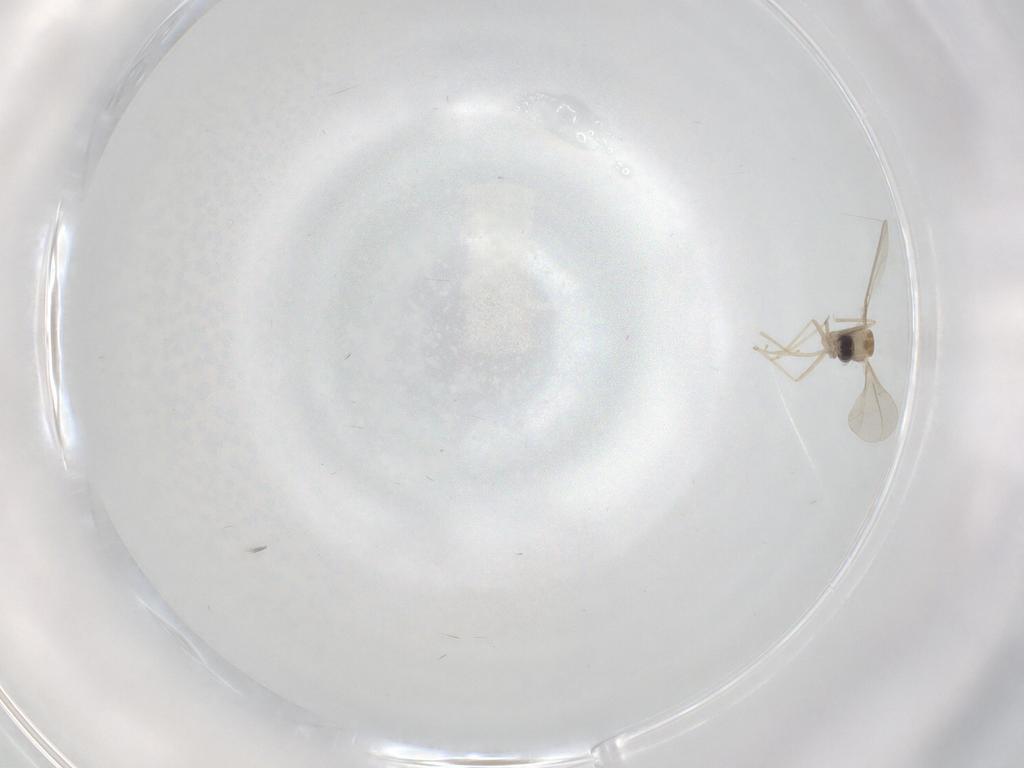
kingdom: Animalia
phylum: Arthropoda
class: Insecta
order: Diptera
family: Cecidomyiidae
